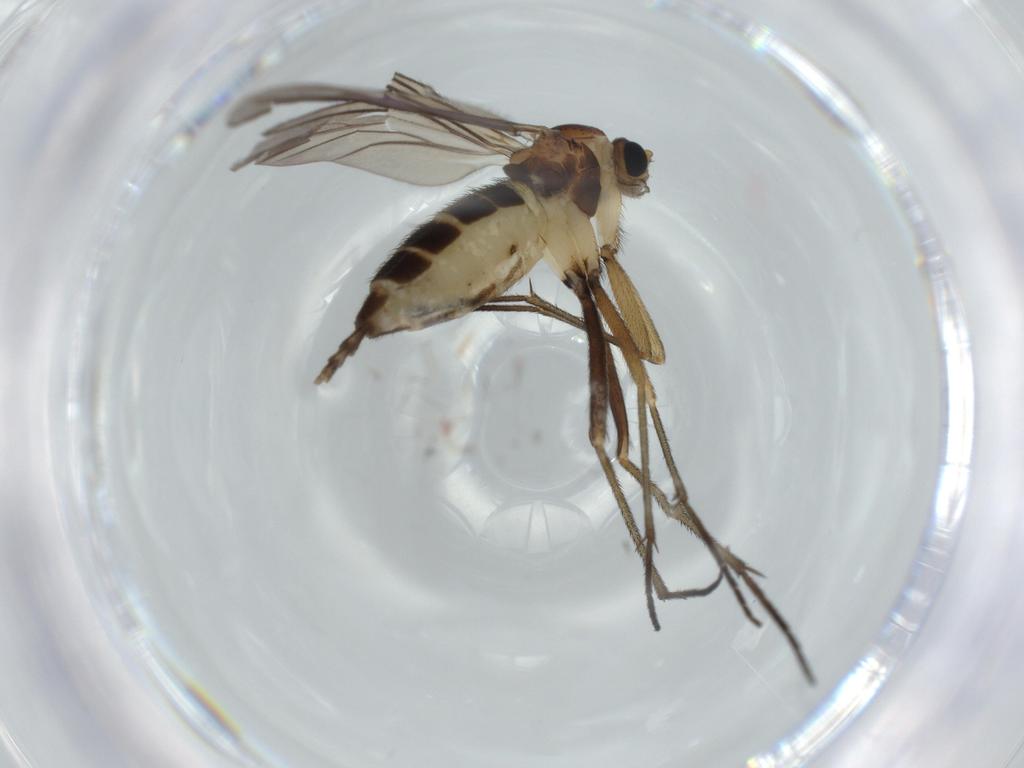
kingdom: Animalia
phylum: Arthropoda
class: Insecta
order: Diptera
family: Sciaridae
